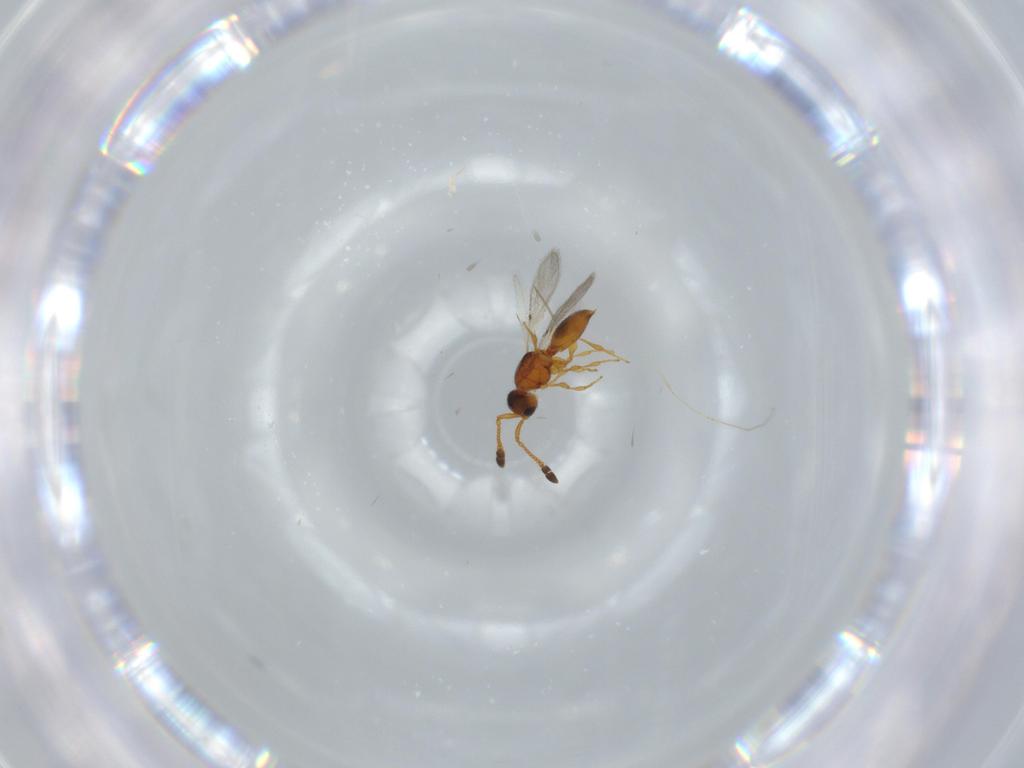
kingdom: Animalia
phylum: Arthropoda
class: Insecta
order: Hymenoptera
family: Diapriidae
